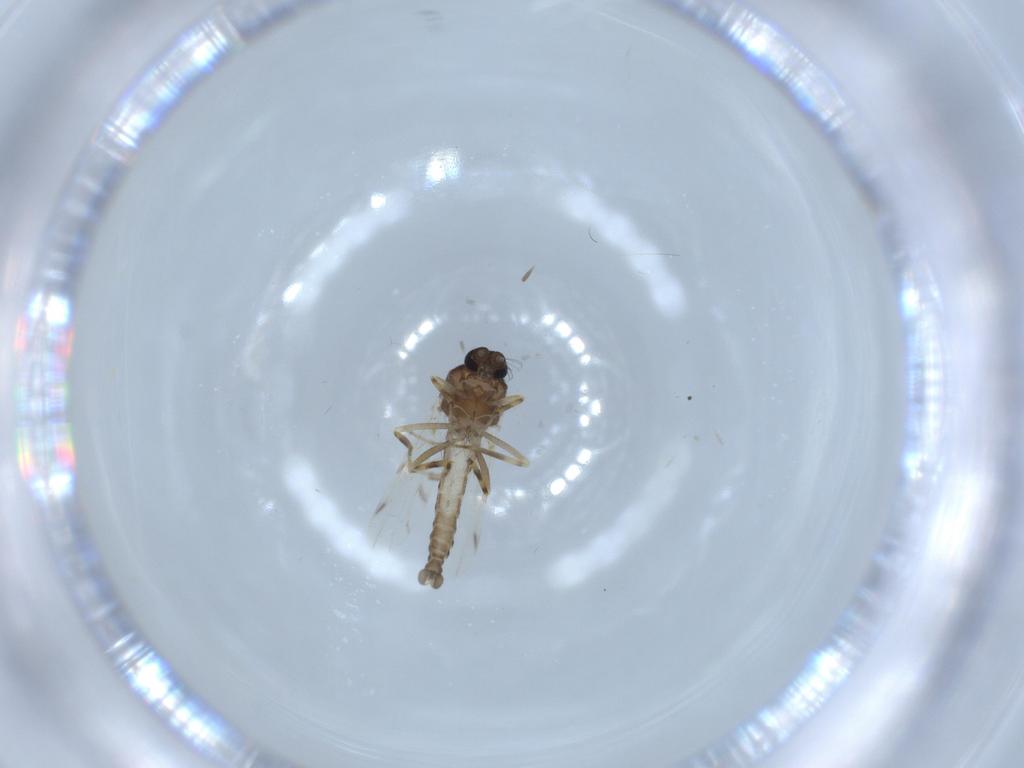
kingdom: Animalia
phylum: Arthropoda
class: Insecta
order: Diptera
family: Ceratopogonidae
